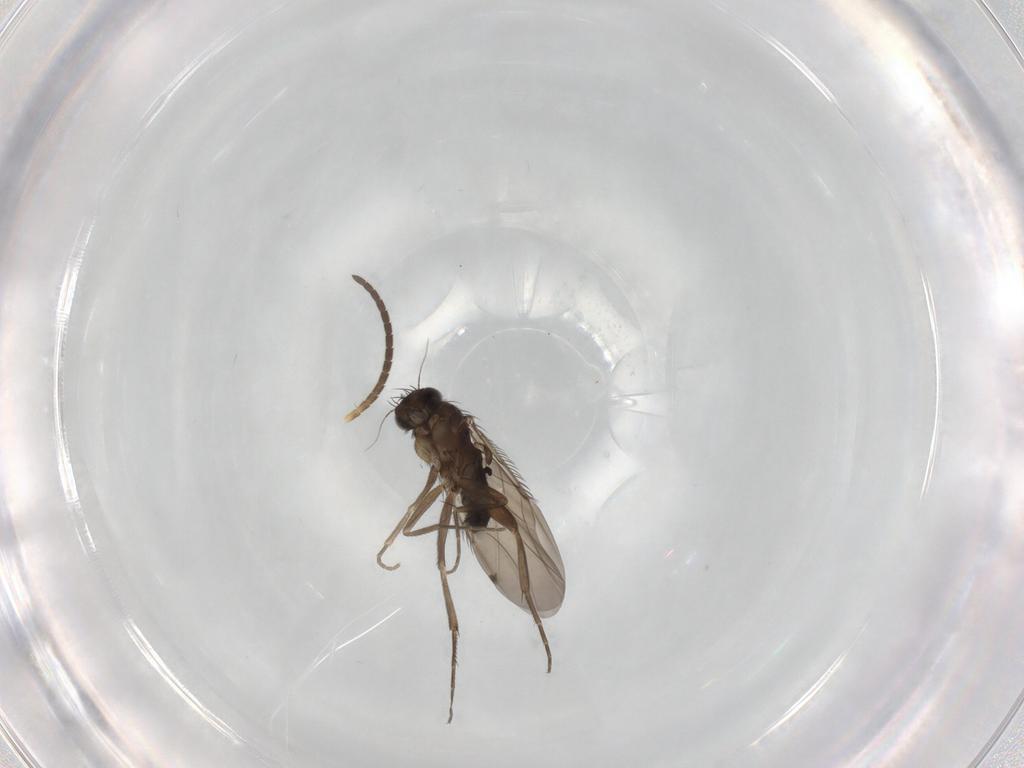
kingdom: Animalia
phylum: Arthropoda
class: Insecta
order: Diptera
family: Phoridae
